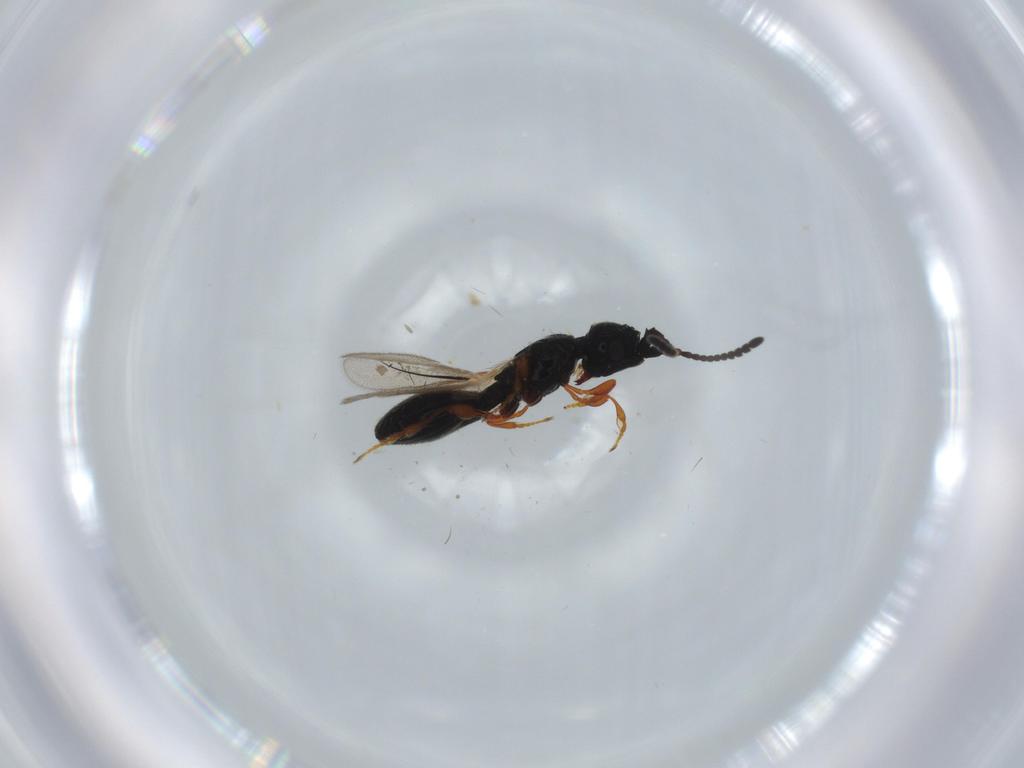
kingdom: Animalia
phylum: Arthropoda
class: Insecta
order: Hymenoptera
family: Diapriidae
